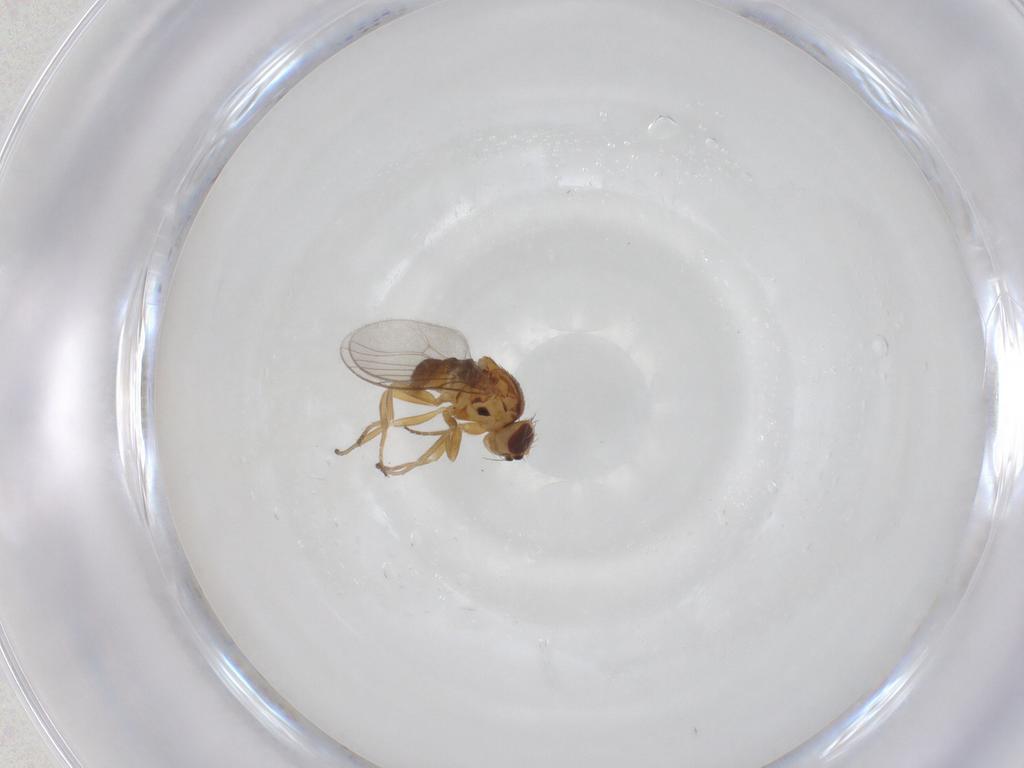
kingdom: Animalia
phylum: Arthropoda
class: Insecta
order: Diptera
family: Chloropidae
